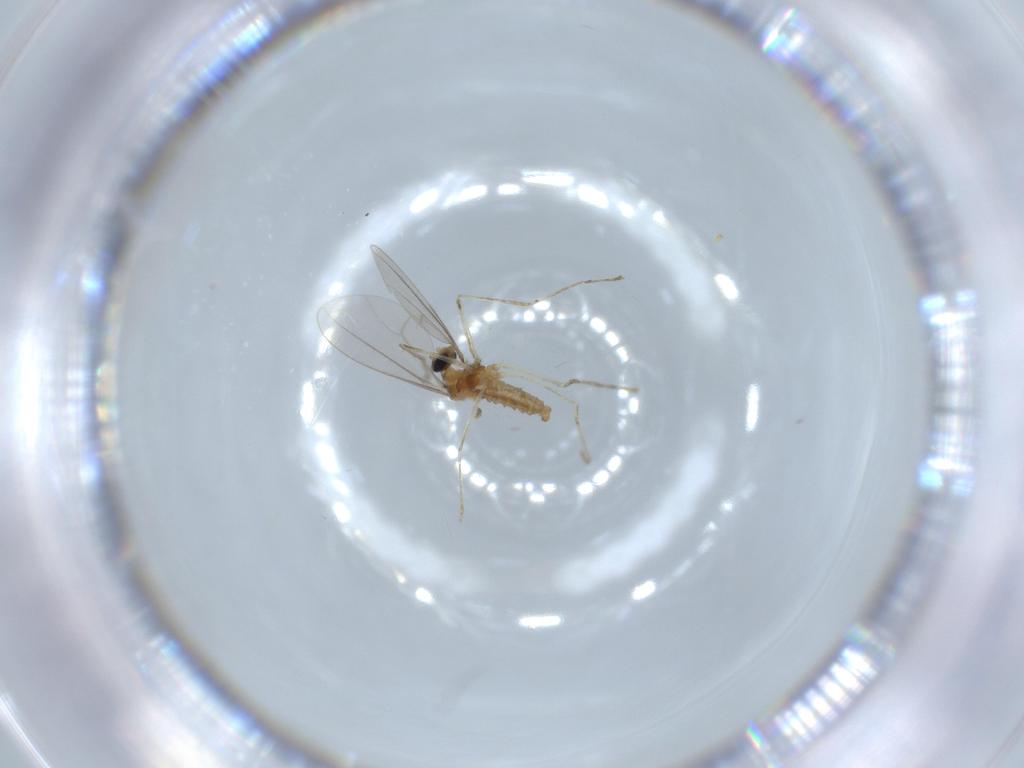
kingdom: Animalia
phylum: Arthropoda
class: Insecta
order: Diptera
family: Cecidomyiidae
